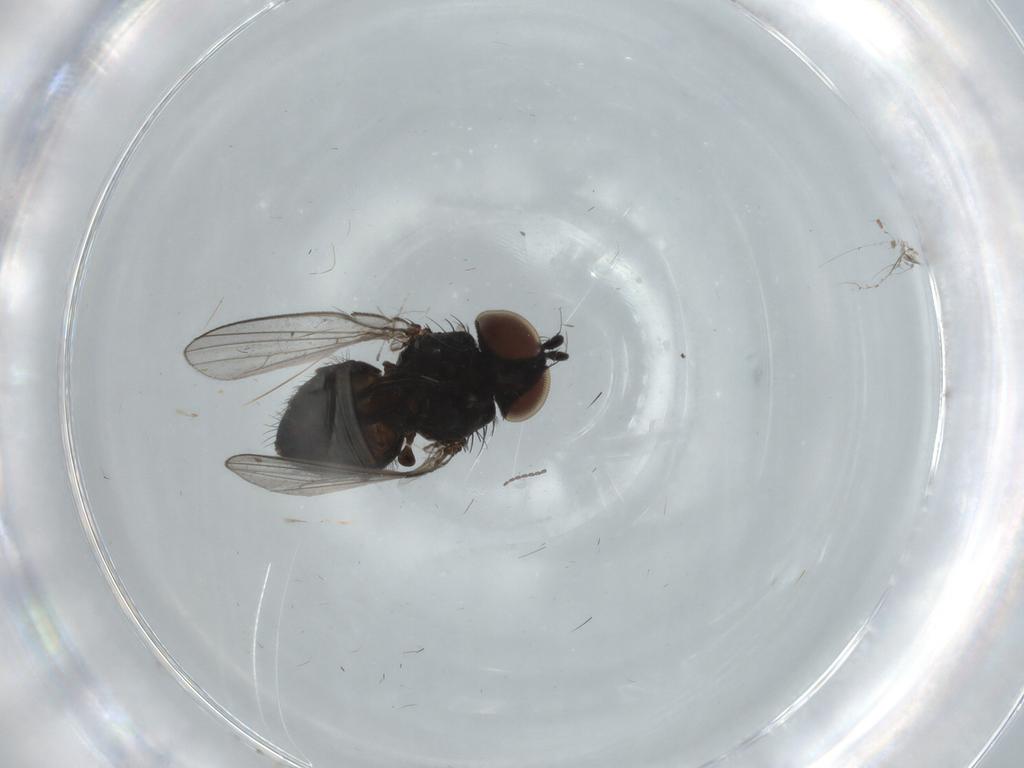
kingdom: Animalia
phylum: Arthropoda
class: Insecta
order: Diptera
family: Milichiidae
